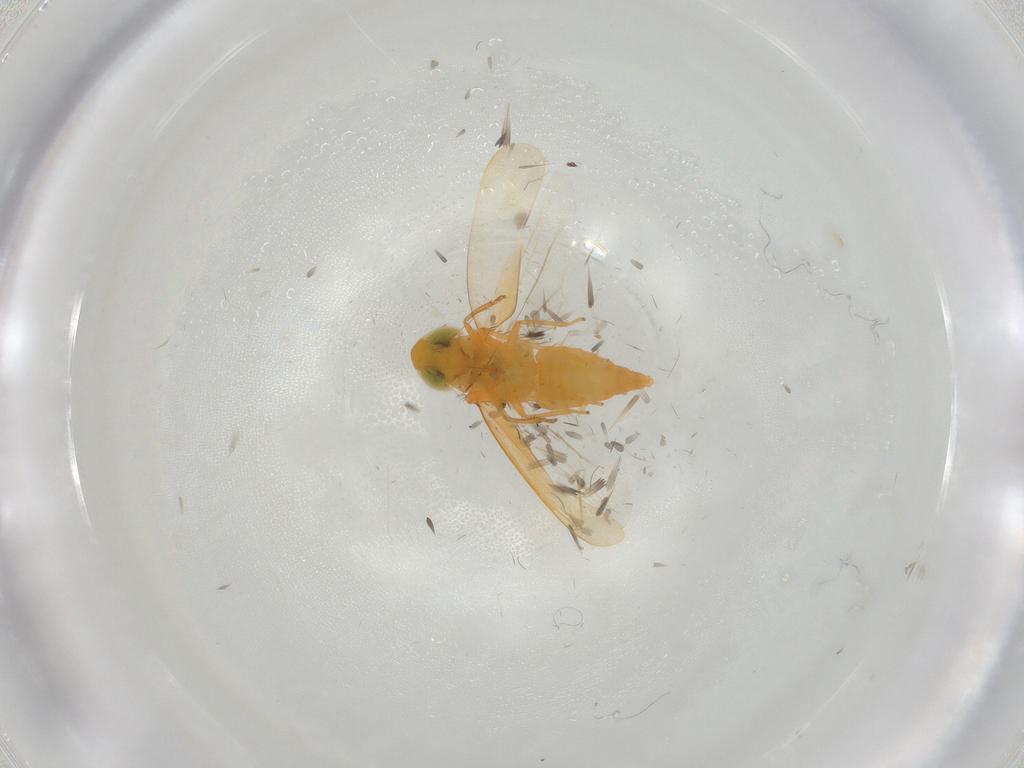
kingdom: Animalia
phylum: Arthropoda
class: Insecta
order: Hemiptera
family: Cicadellidae
